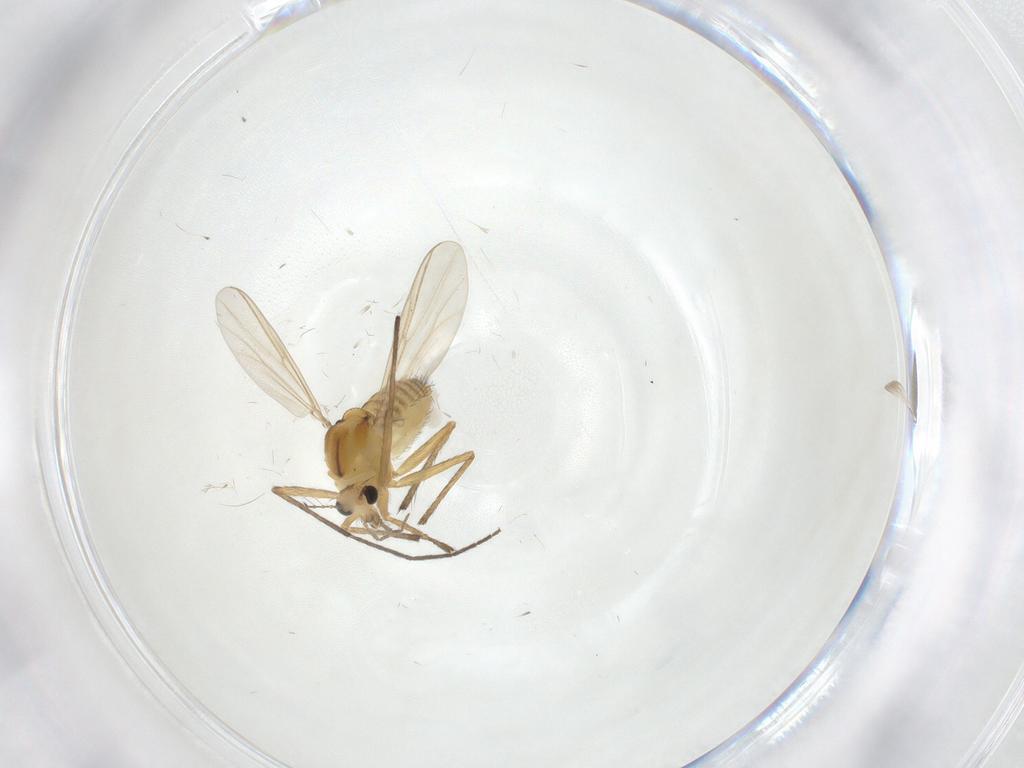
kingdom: Animalia
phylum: Arthropoda
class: Insecta
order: Diptera
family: Chironomidae
